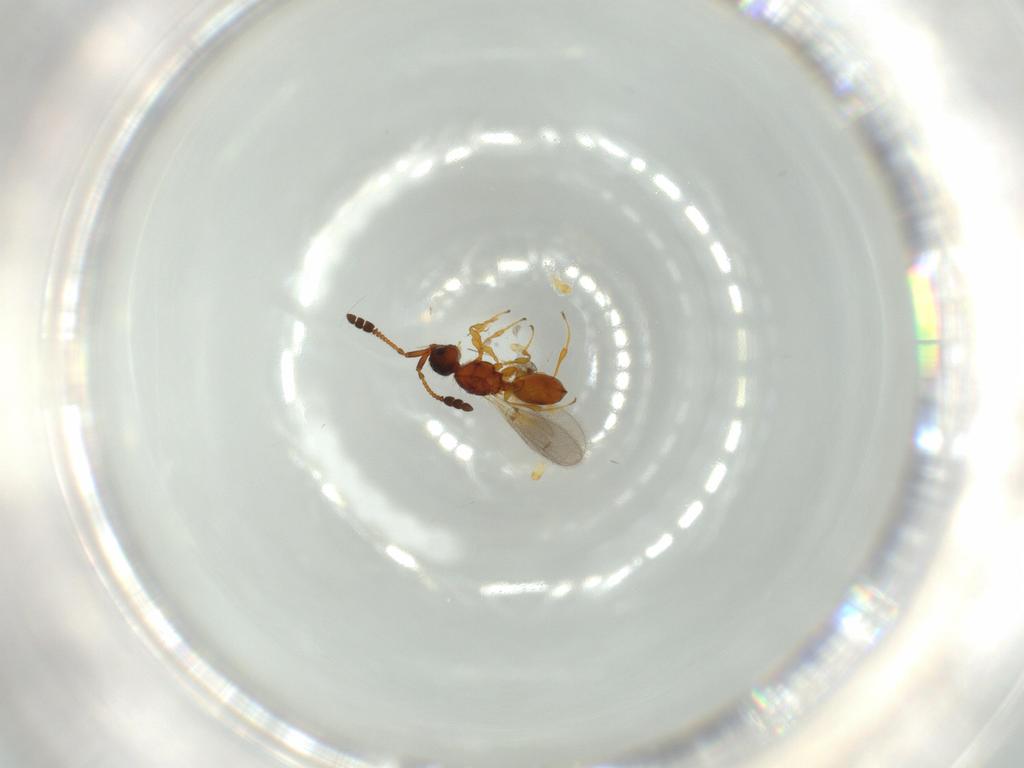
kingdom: Animalia
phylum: Arthropoda
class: Insecta
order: Hymenoptera
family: Diapriidae
